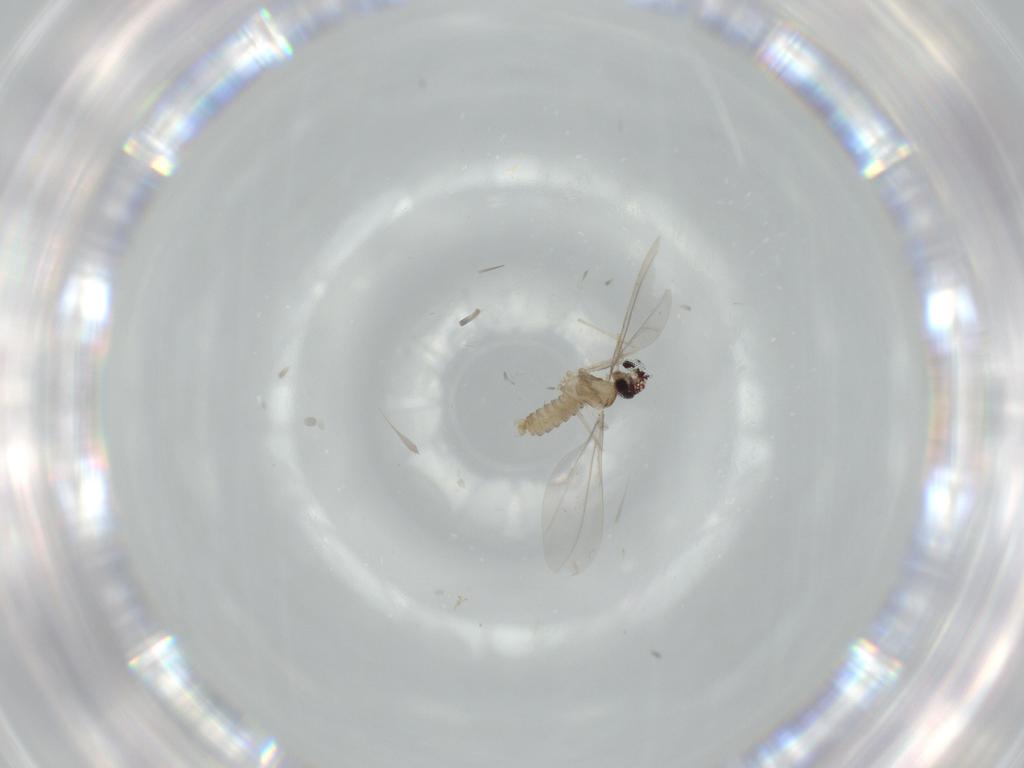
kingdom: Animalia
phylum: Arthropoda
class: Insecta
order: Diptera
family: Cecidomyiidae
